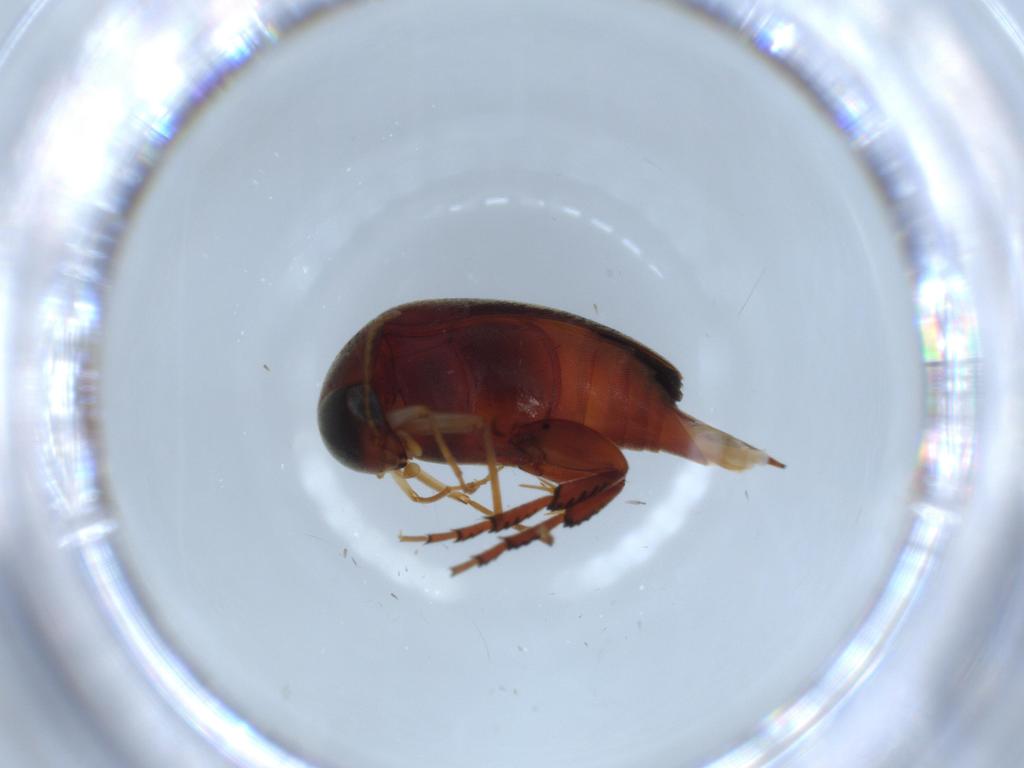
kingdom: Animalia
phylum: Arthropoda
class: Insecta
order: Coleoptera
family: Mordellidae
